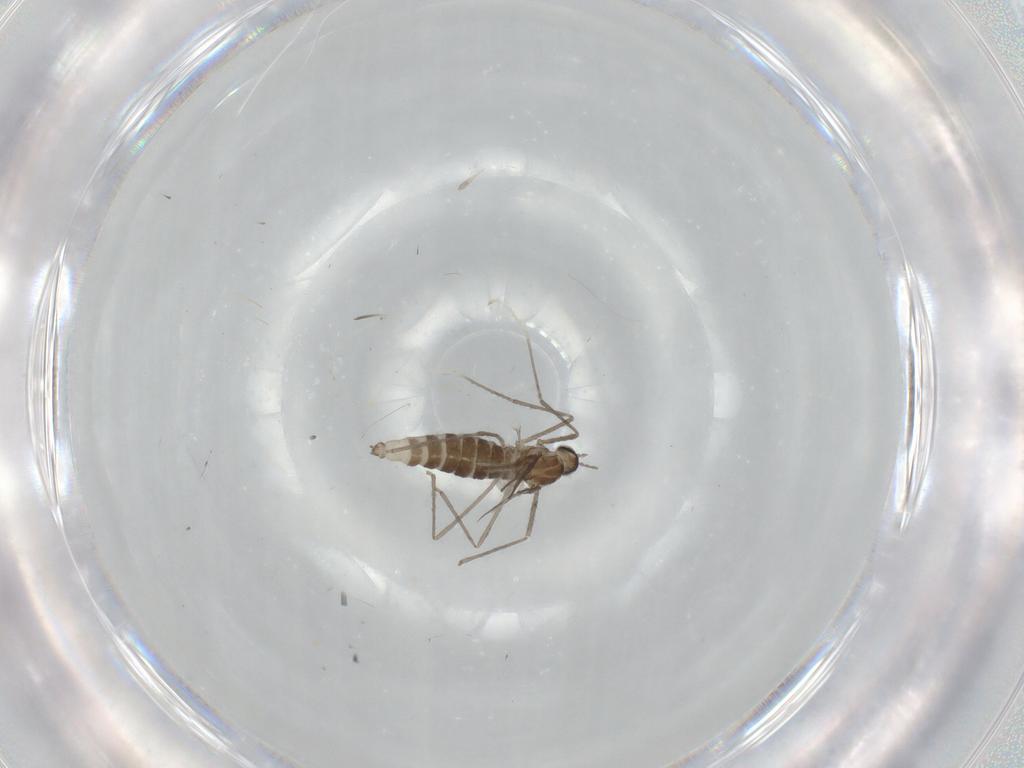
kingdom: Animalia
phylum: Arthropoda
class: Insecta
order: Diptera
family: Cecidomyiidae
